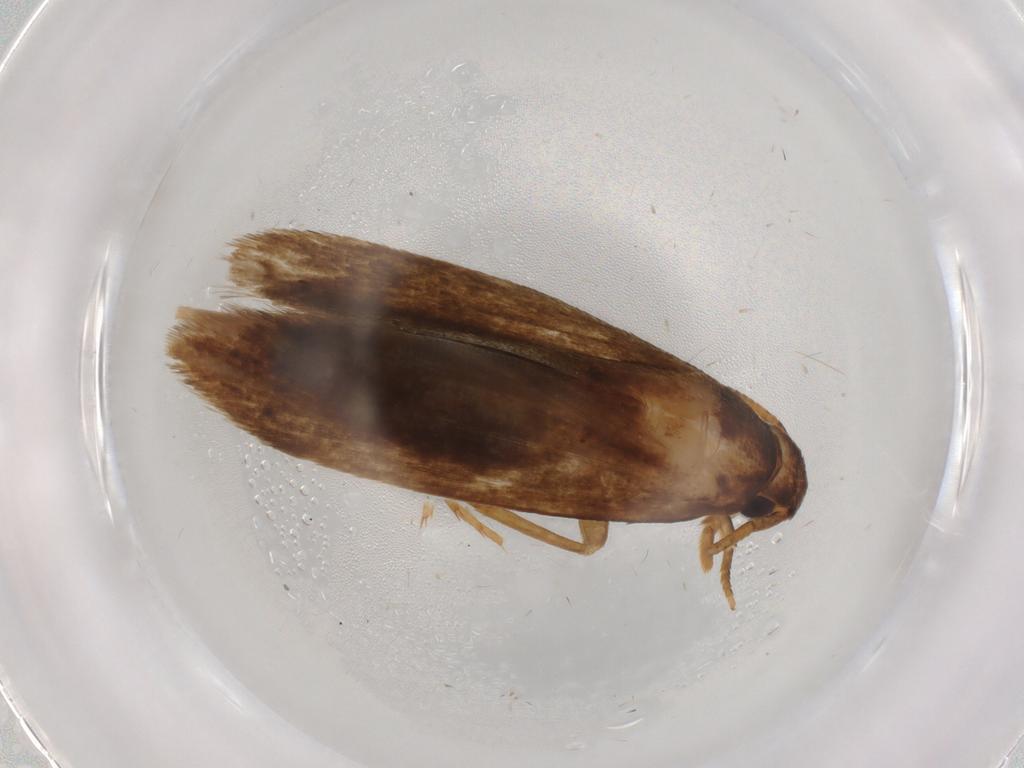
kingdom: Animalia
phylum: Arthropoda
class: Insecta
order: Lepidoptera
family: Tineidae
